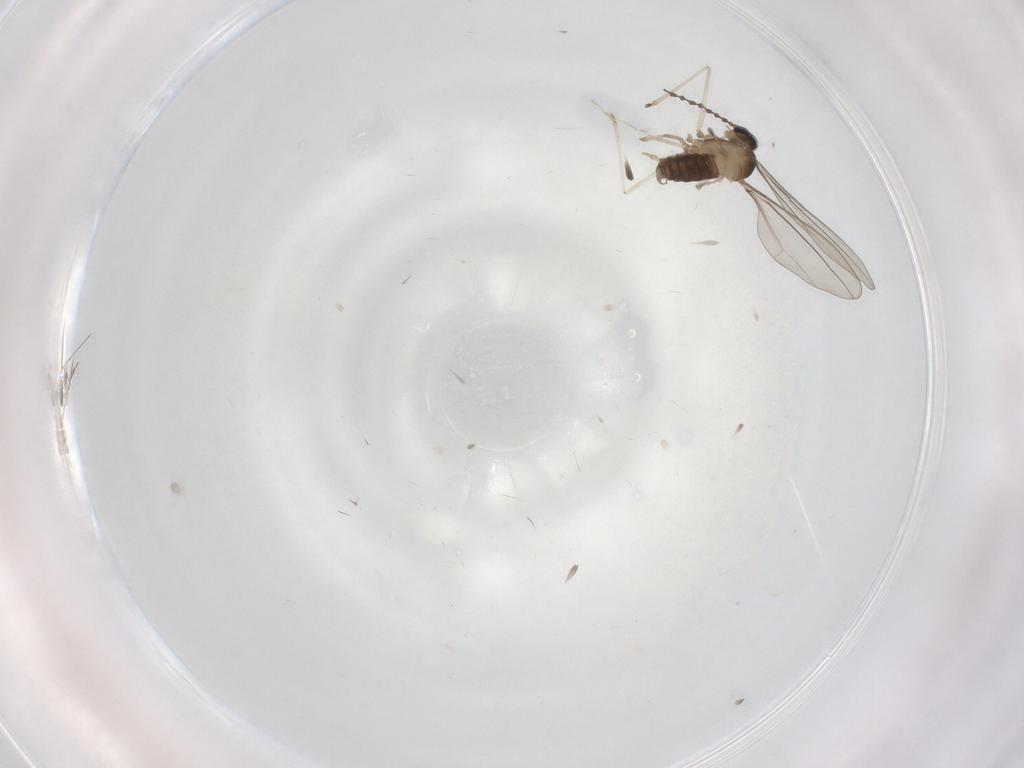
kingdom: Animalia
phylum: Arthropoda
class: Insecta
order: Diptera
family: Cecidomyiidae
